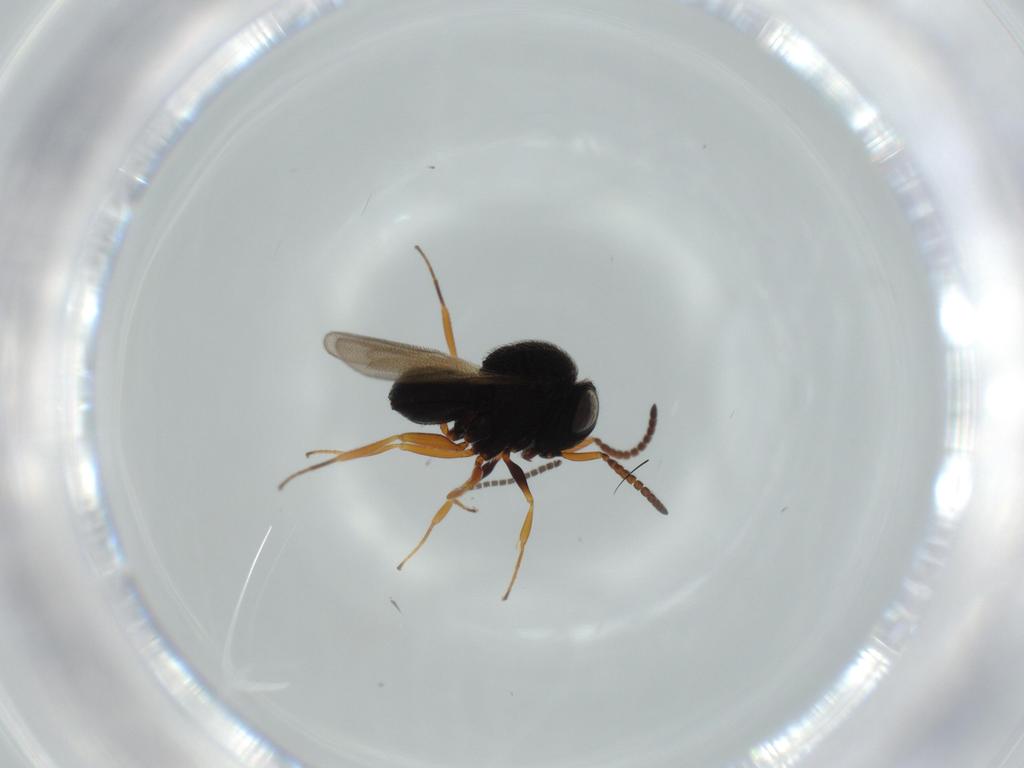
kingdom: Animalia
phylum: Arthropoda
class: Insecta
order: Hymenoptera
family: Scelionidae
